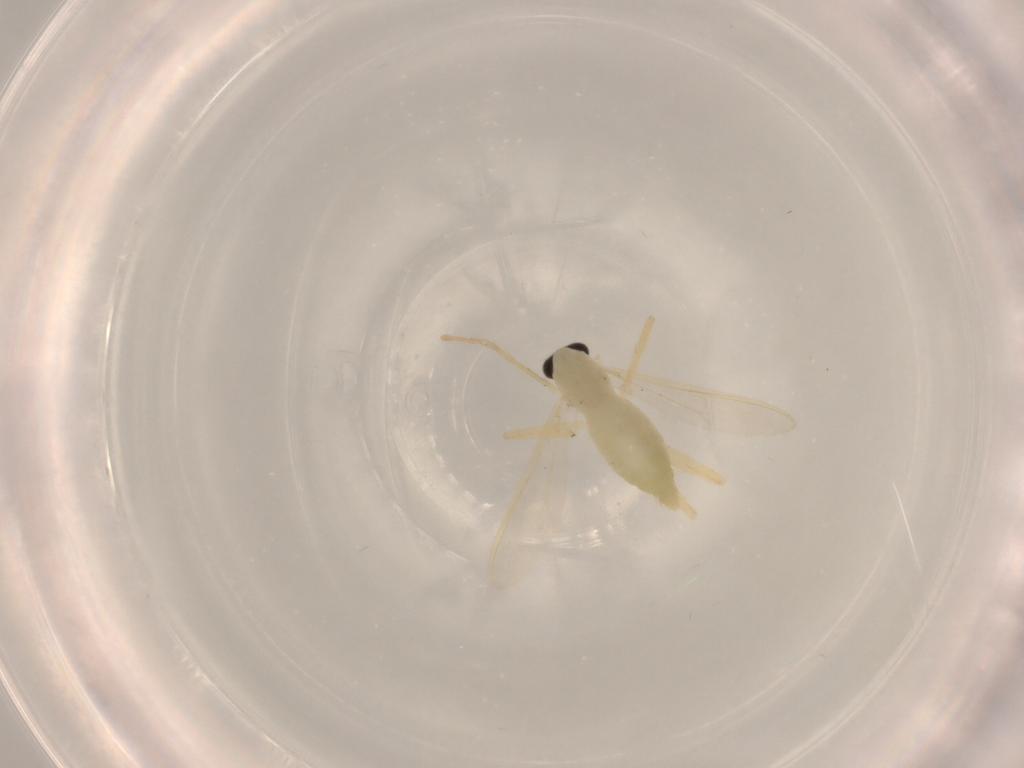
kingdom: Animalia
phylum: Arthropoda
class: Insecta
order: Diptera
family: Chironomidae
